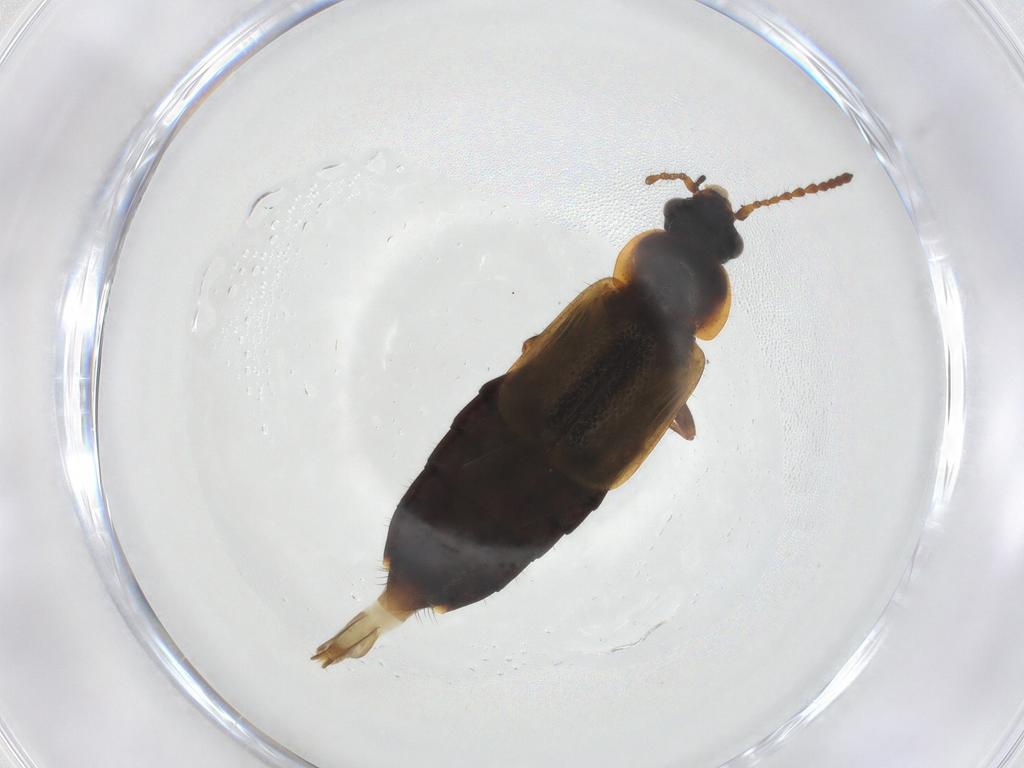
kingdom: Animalia
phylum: Arthropoda
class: Insecta
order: Coleoptera
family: Staphylinidae
